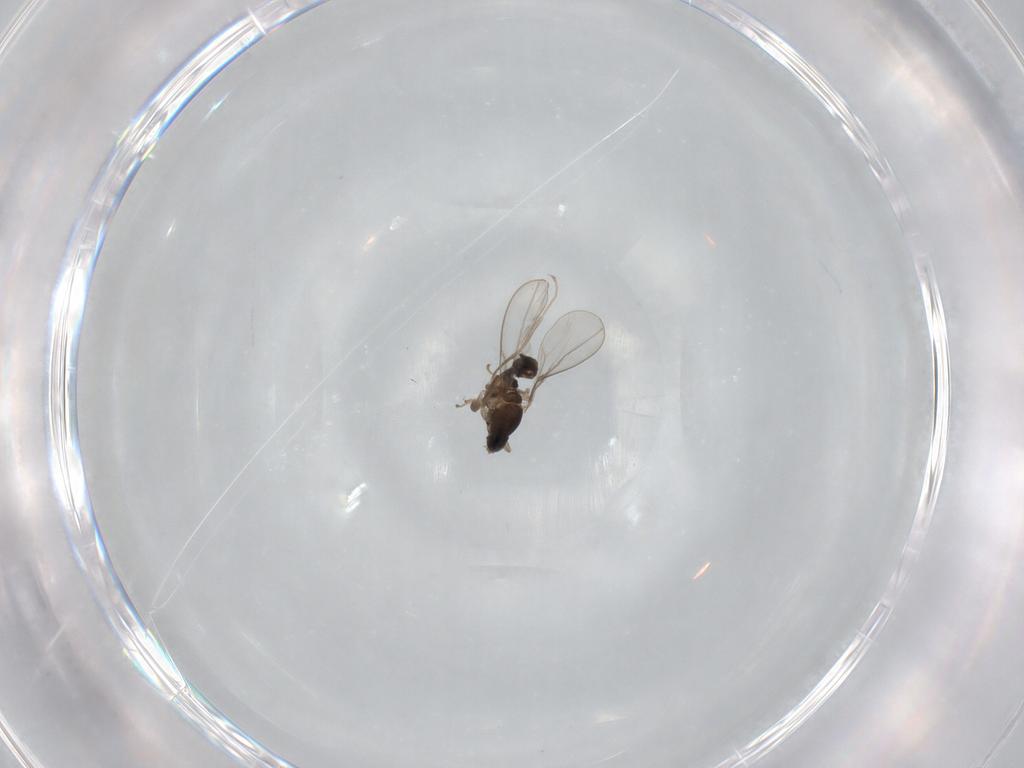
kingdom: Animalia
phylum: Arthropoda
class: Insecta
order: Diptera
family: Cecidomyiidae
